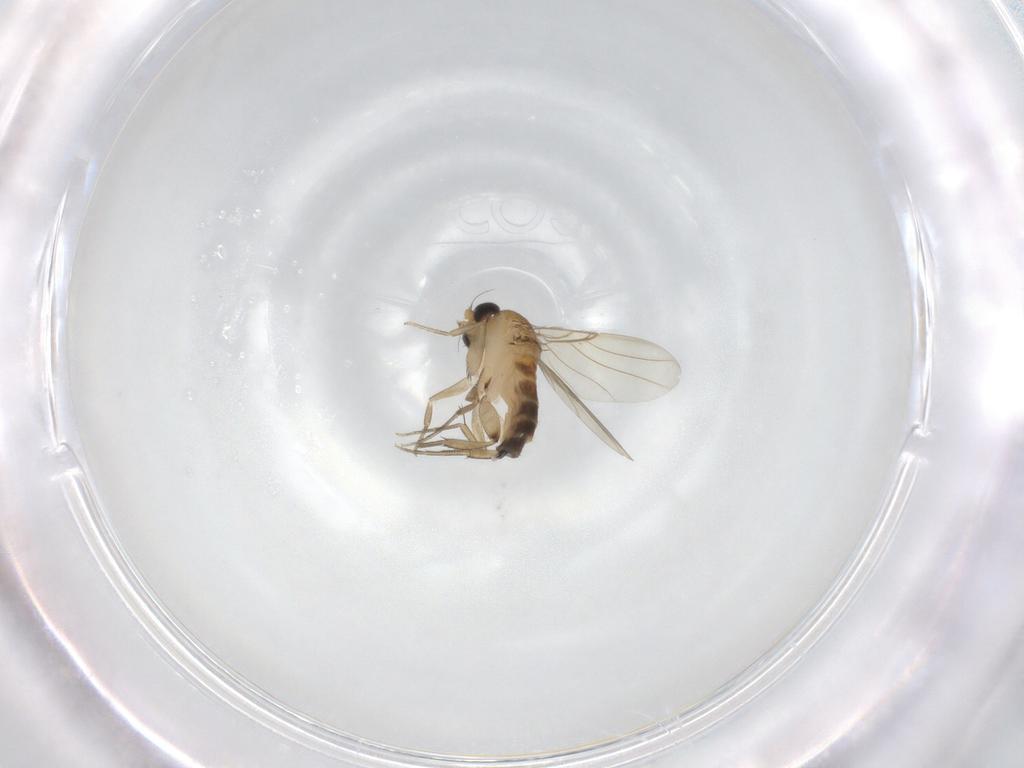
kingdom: Animalia
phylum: Arthropoda
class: Insecta
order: Diptera
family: Phoridae
